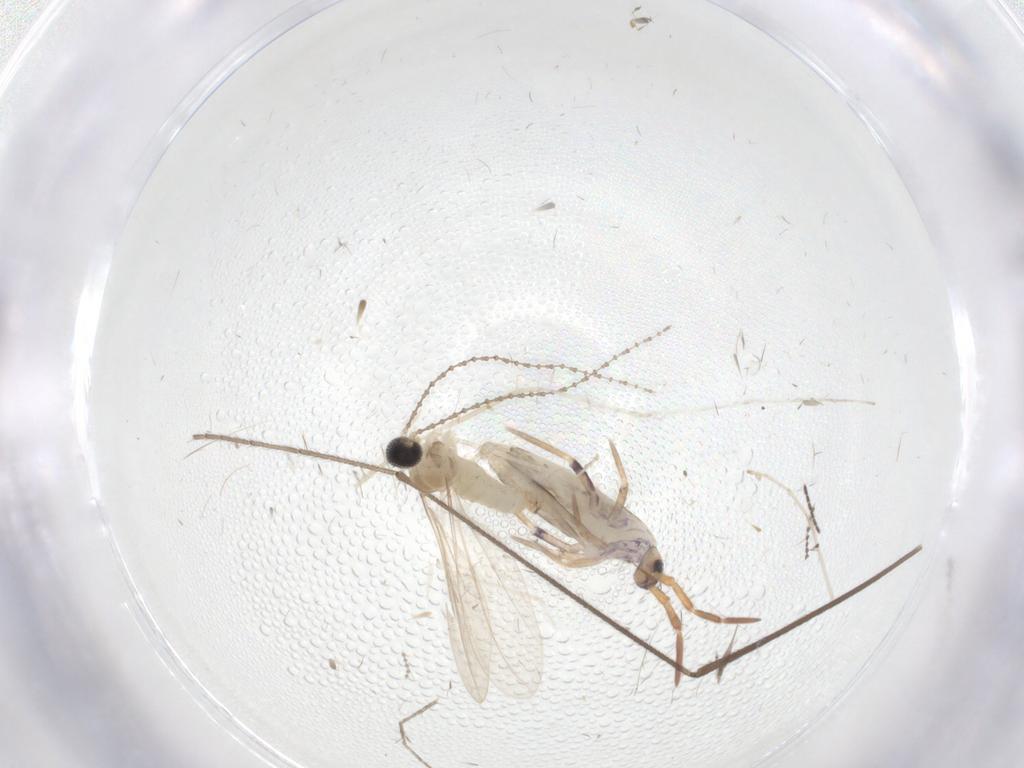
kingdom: Animalia
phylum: Arthropoda
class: Collembola
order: Entomobryomorpha
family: Entomobryidae
